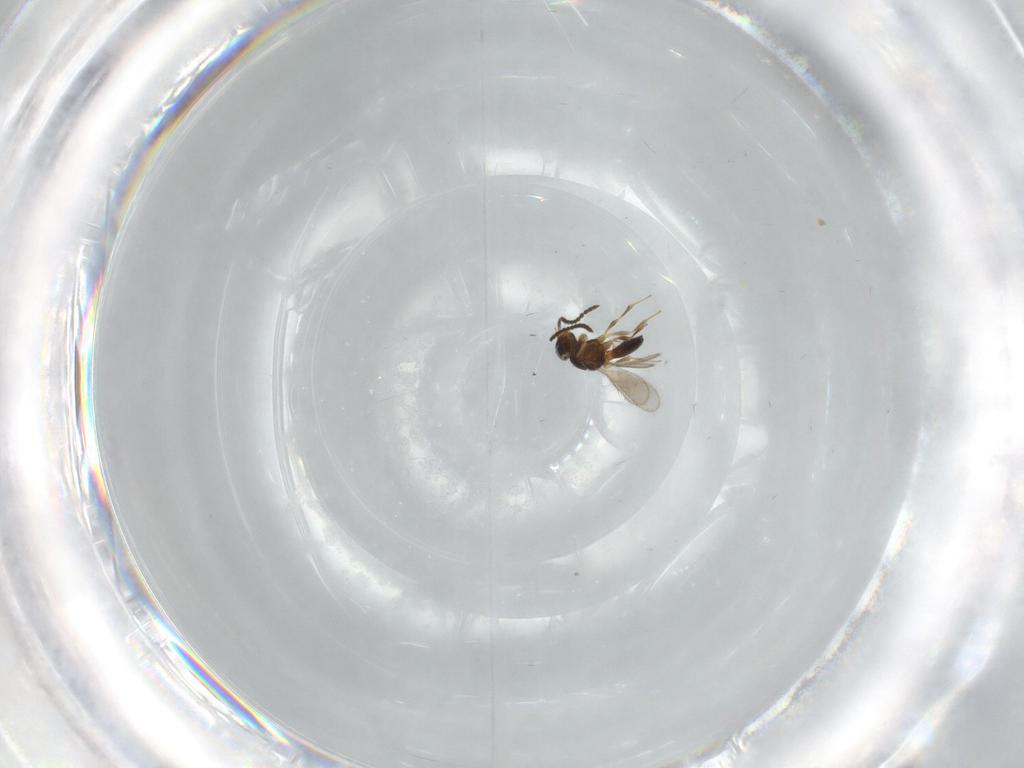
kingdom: Animalia
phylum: Arthropoda
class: Insecta
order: Hymenoptera
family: Scelionidae
